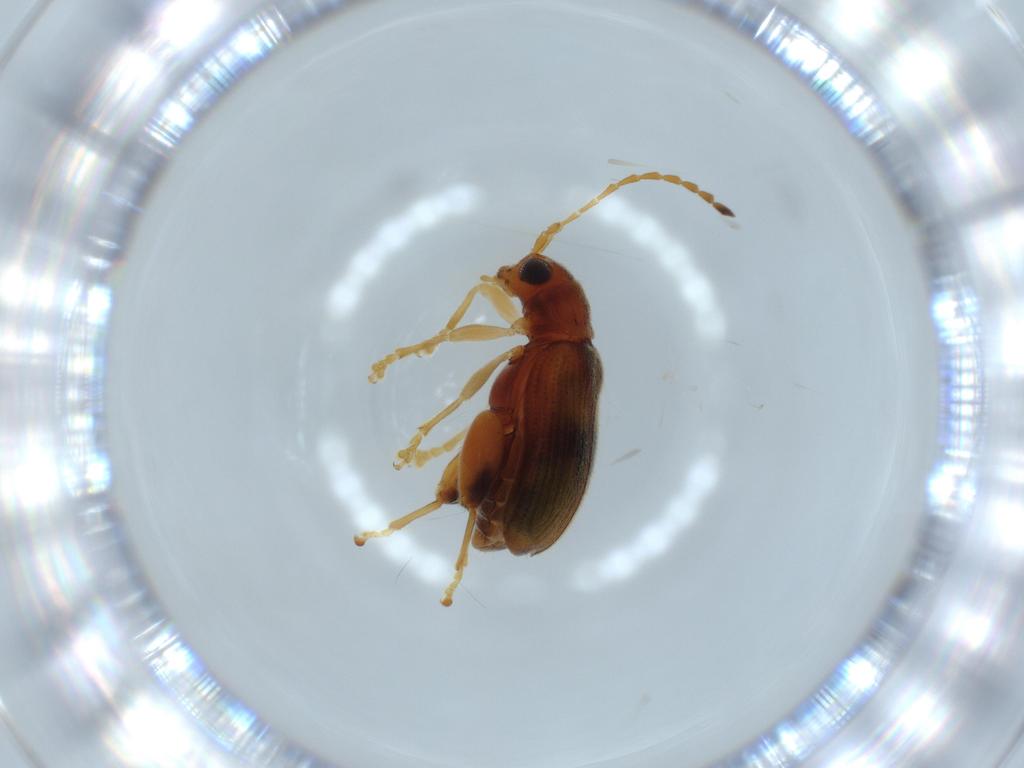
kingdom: Animalia
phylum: Arthropoda
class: Insecta
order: Coleoptera
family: Chrysomelidae
